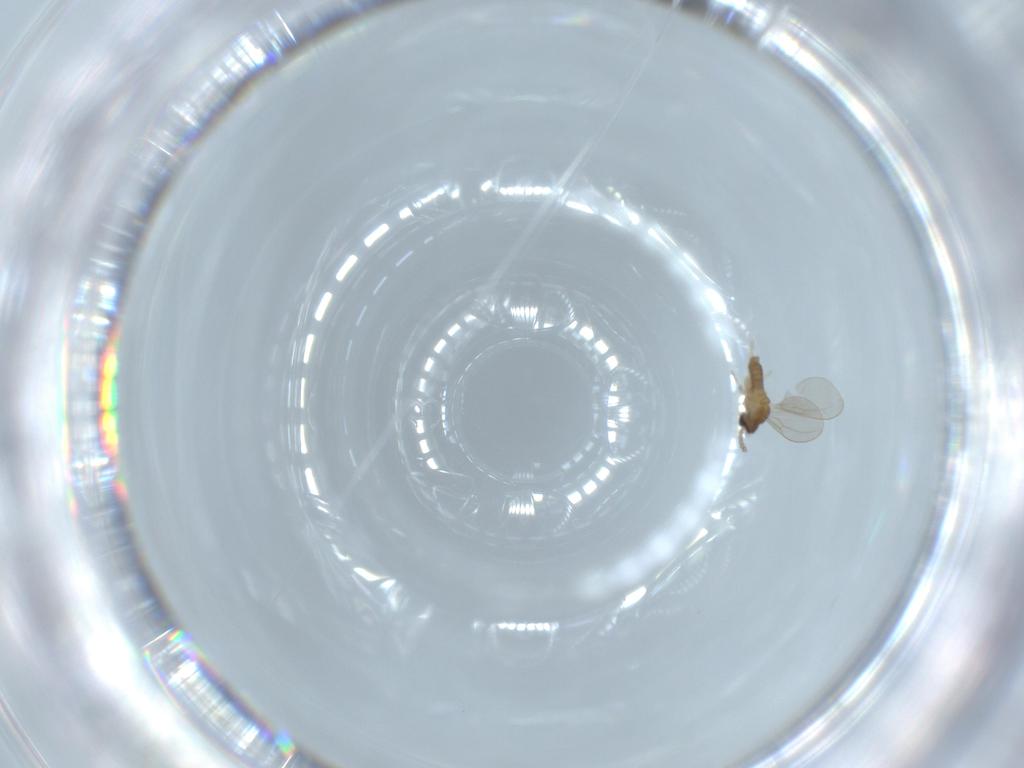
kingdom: Animalia
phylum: Arthropoda
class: Insecta
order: Diptera
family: Cecidomyiidae
